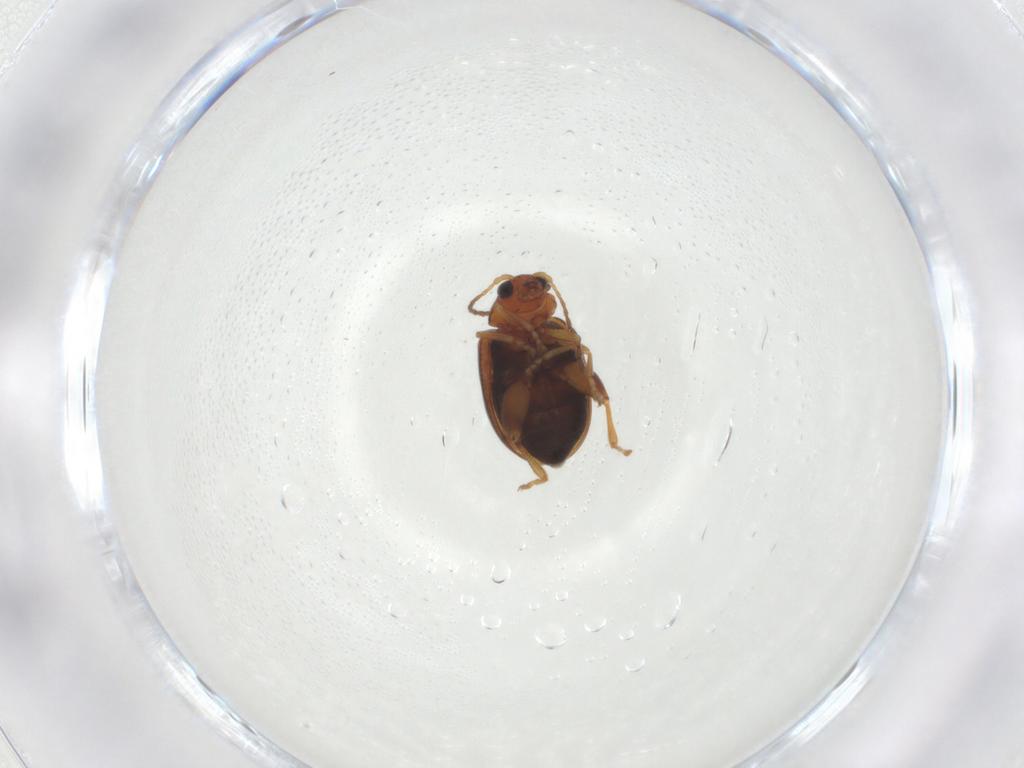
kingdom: Animalia
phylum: Arthropoda
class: Insecta
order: Coleoptera
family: Chrysomelidae
